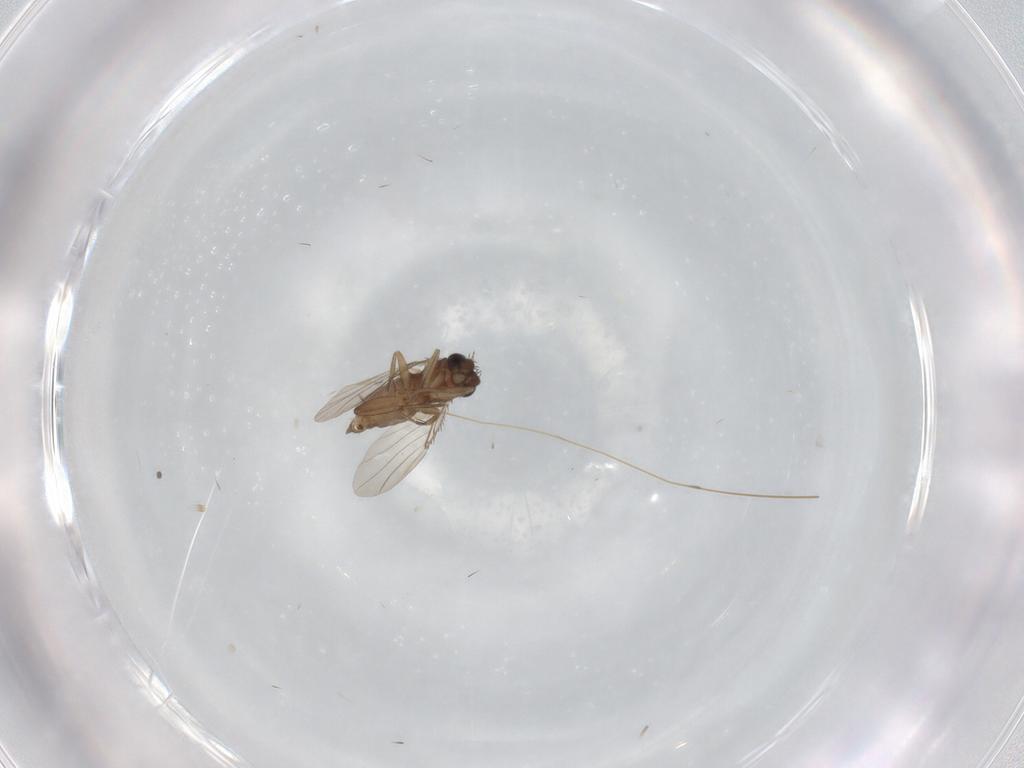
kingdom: Animalia
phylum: Arthropoda
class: Insecta
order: Diptera
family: Phoridae
